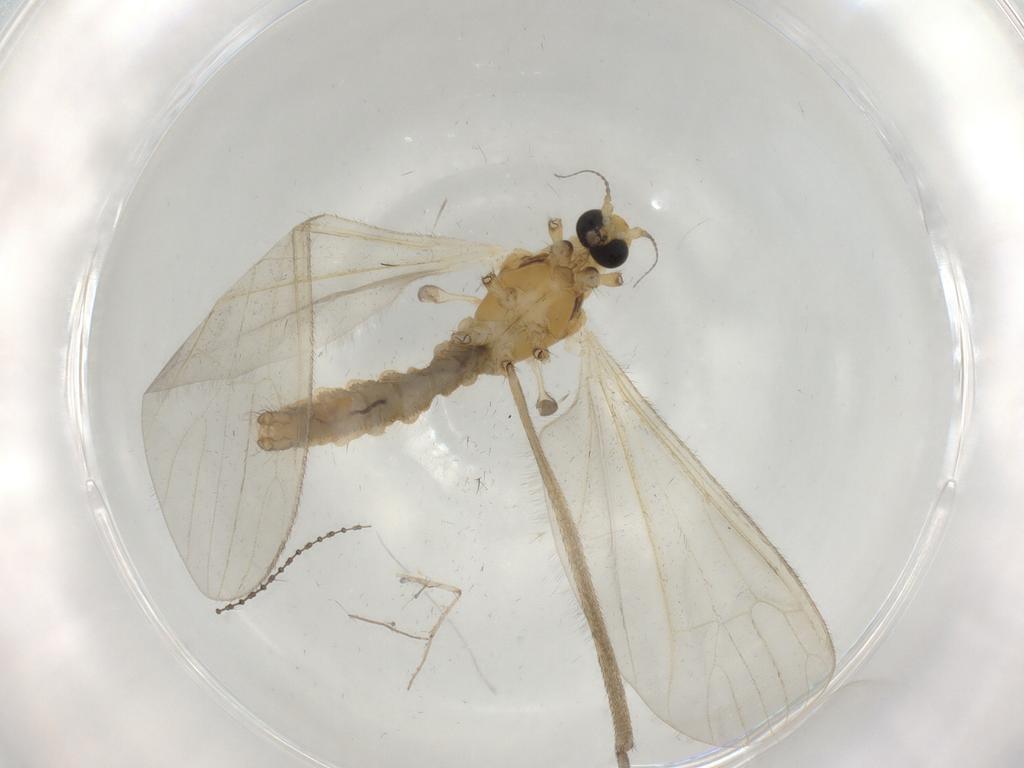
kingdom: Animalia
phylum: Arthropoda
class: Insecta
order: Diptera
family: Limoniidae
